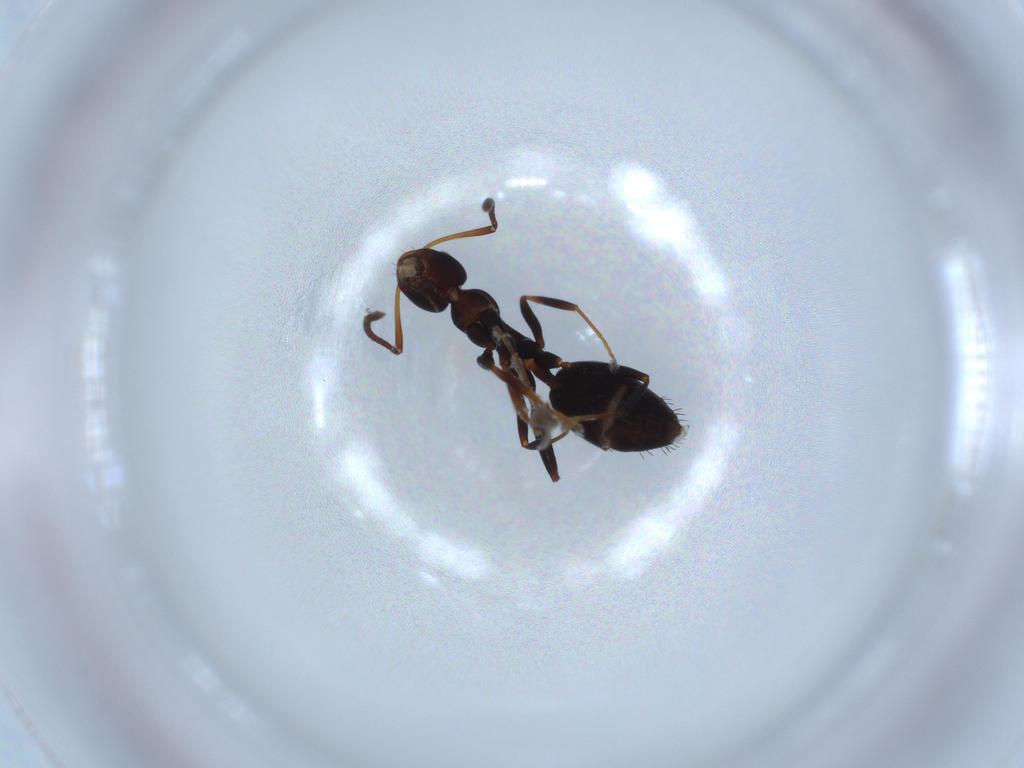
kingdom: Animalia
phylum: Arthropoda
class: Insecta
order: Hymenoptera
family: Formicidae
